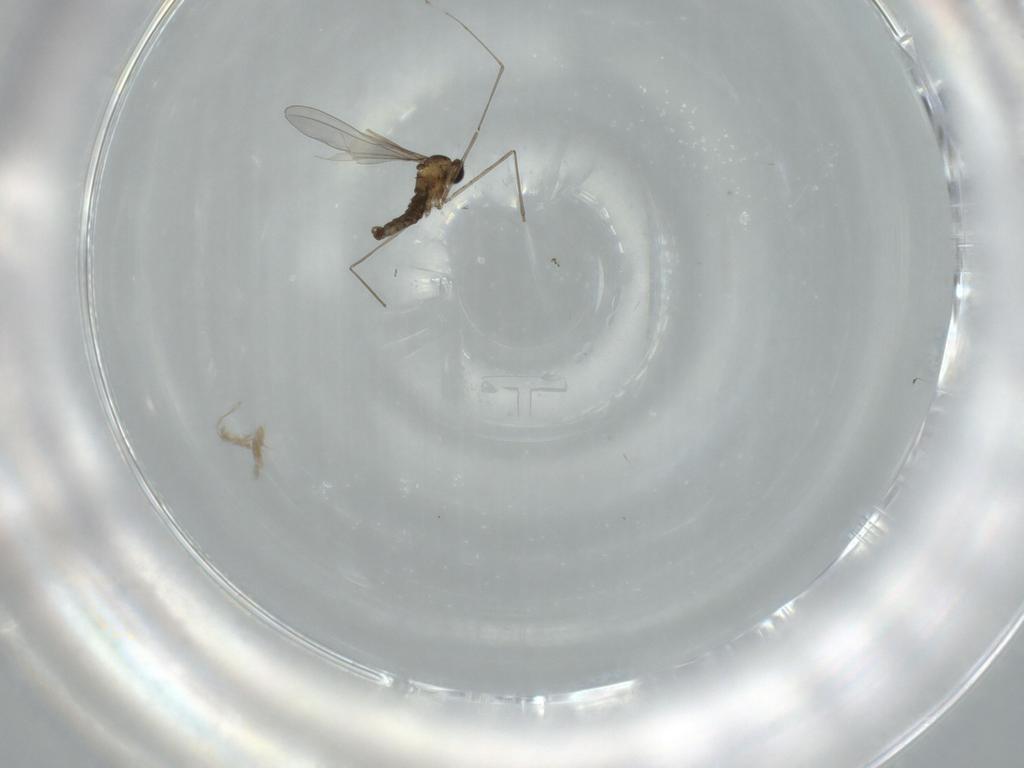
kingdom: Animalia
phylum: Arthropoda
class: Insecta
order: Diptera
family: Cecidomyiidae
